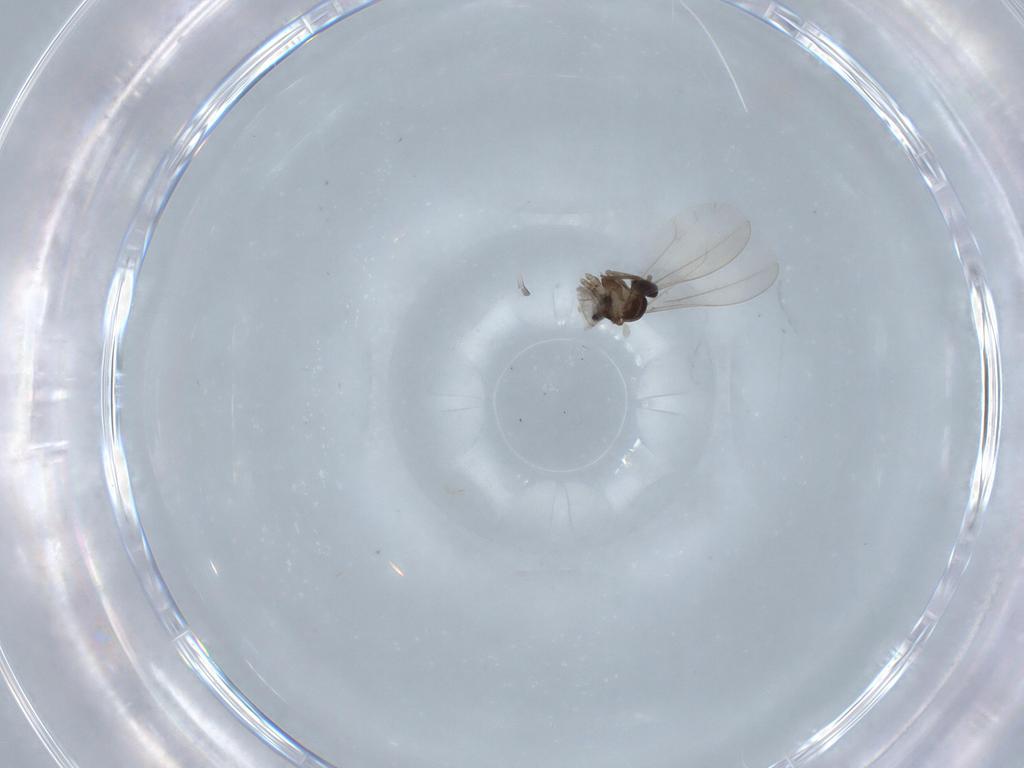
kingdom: Animalia
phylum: Arthropoda
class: Insecta
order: Diptera
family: Cecidomyiidae
